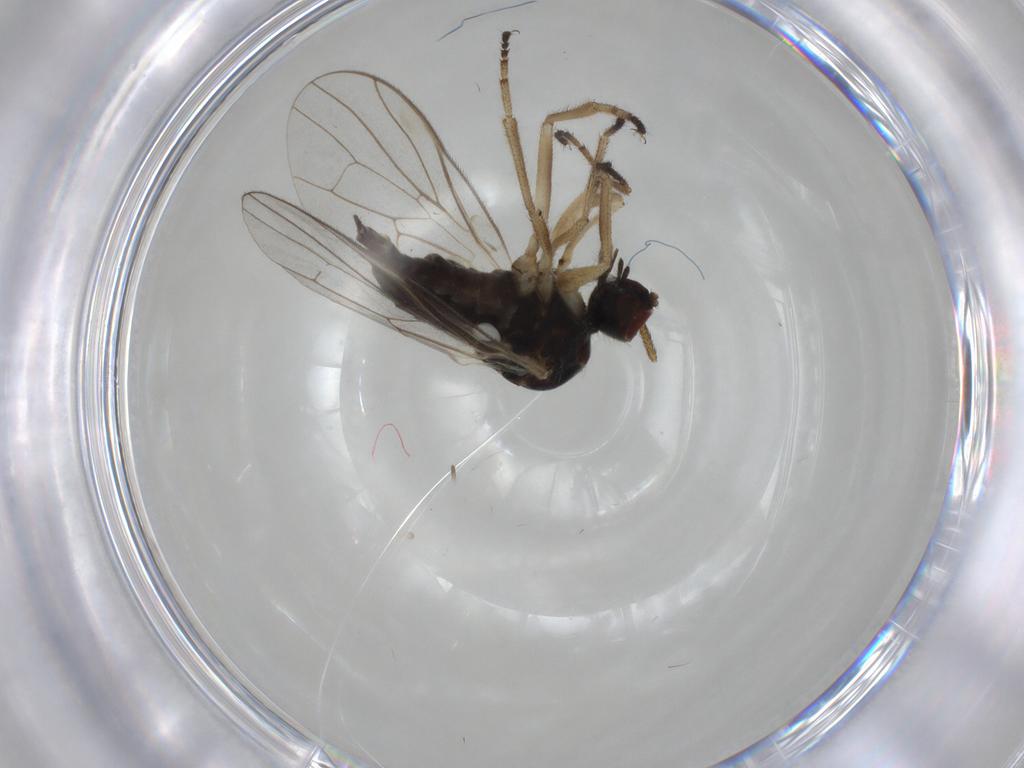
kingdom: Animalia
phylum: Arthropoda
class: Insecta
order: Diptera
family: Chironomidae
